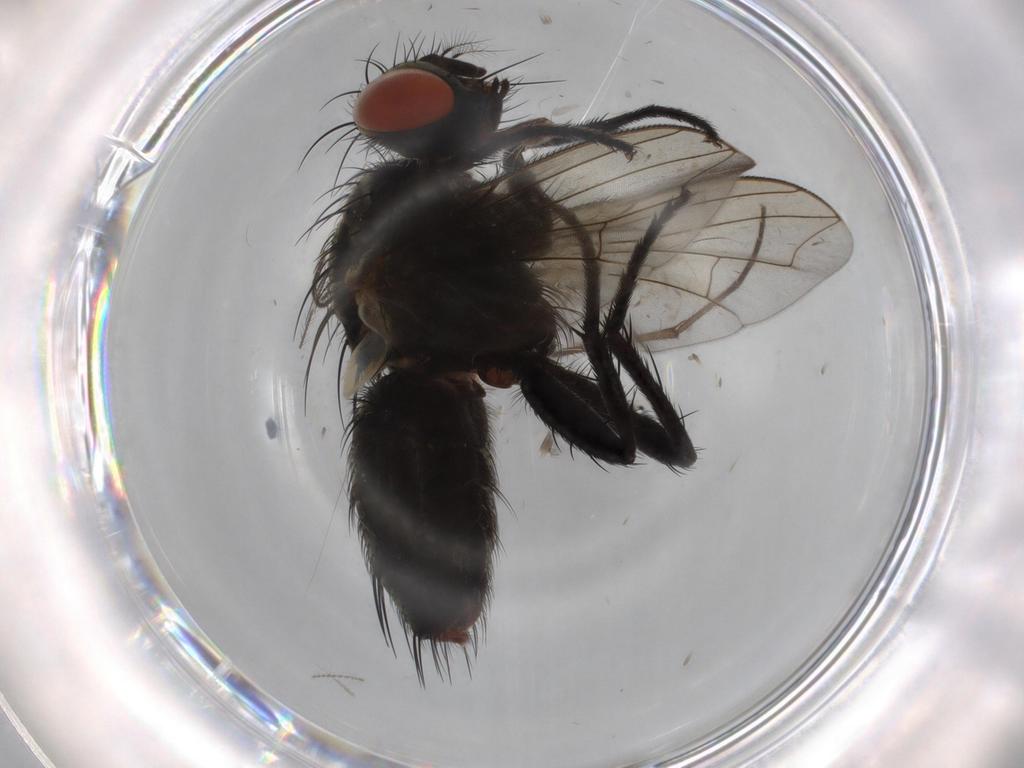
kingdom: Animalia
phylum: Arthropoda
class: Insecta
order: Diptera
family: Sarcophagidae
